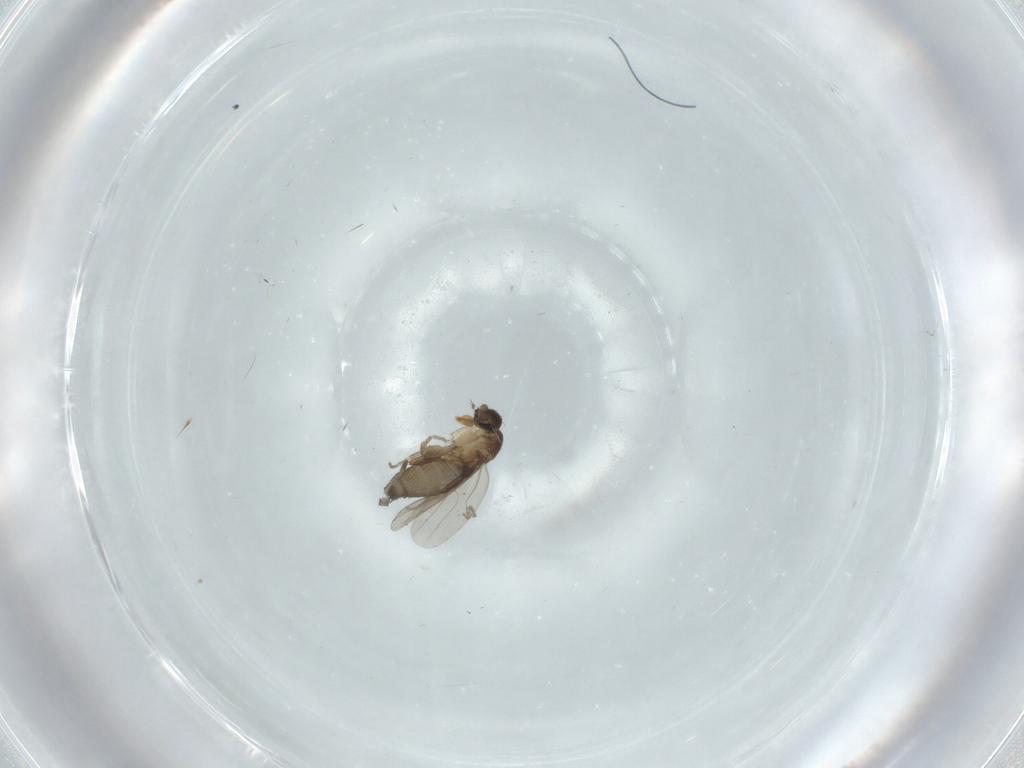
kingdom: Animalia
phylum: Arthropoda
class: Insecta
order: Diptera
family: Phoridae
